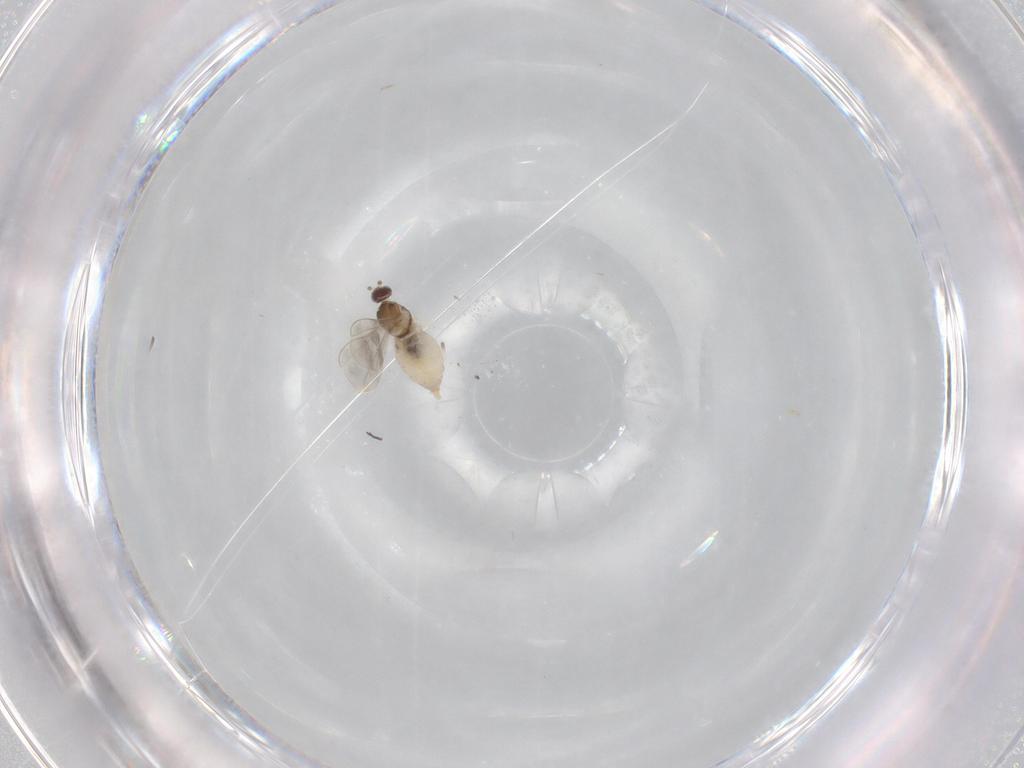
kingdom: Animalia
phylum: Arthropoda
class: Insecta
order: Diptera
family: Cecidomyiidae
